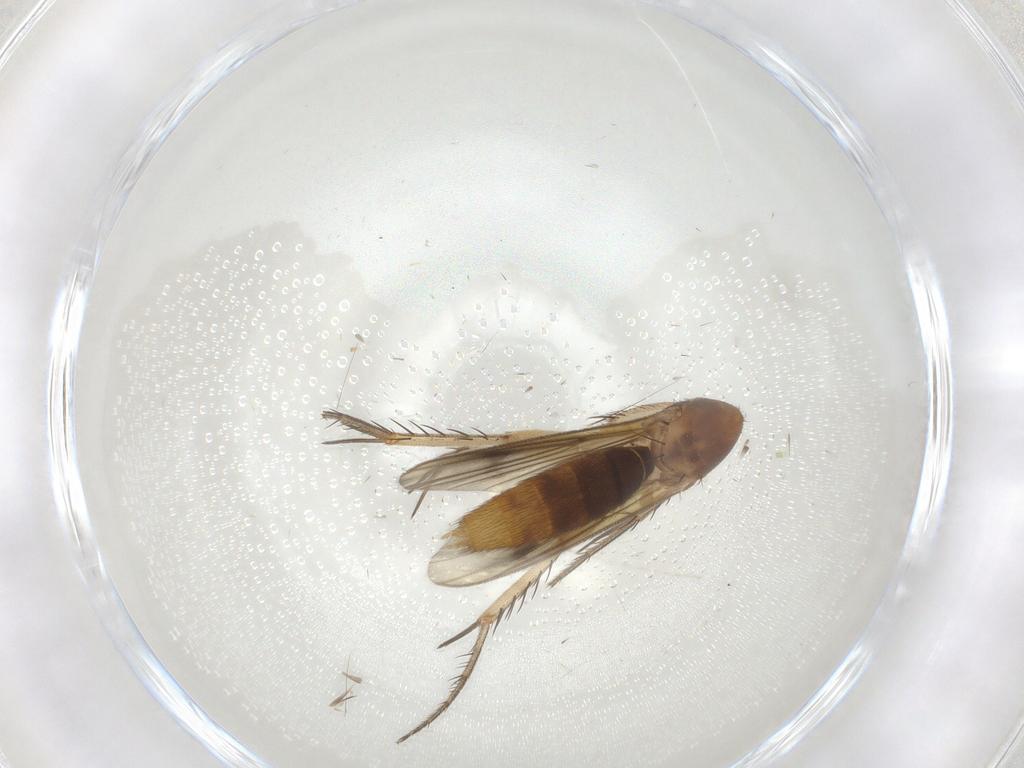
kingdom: Animalia
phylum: Arthropoda
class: Insecta
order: Diptera
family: Mycetophilidae
